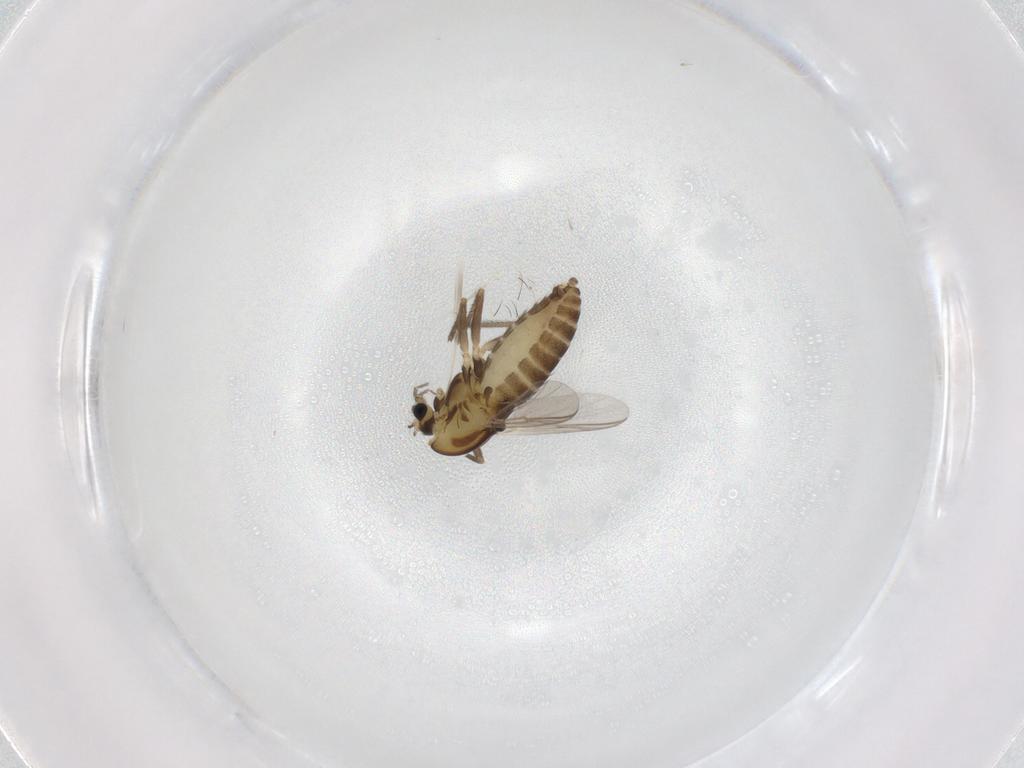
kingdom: Animalia
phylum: Arthropoda
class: Insecta
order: Diptera
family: Chironomidae
